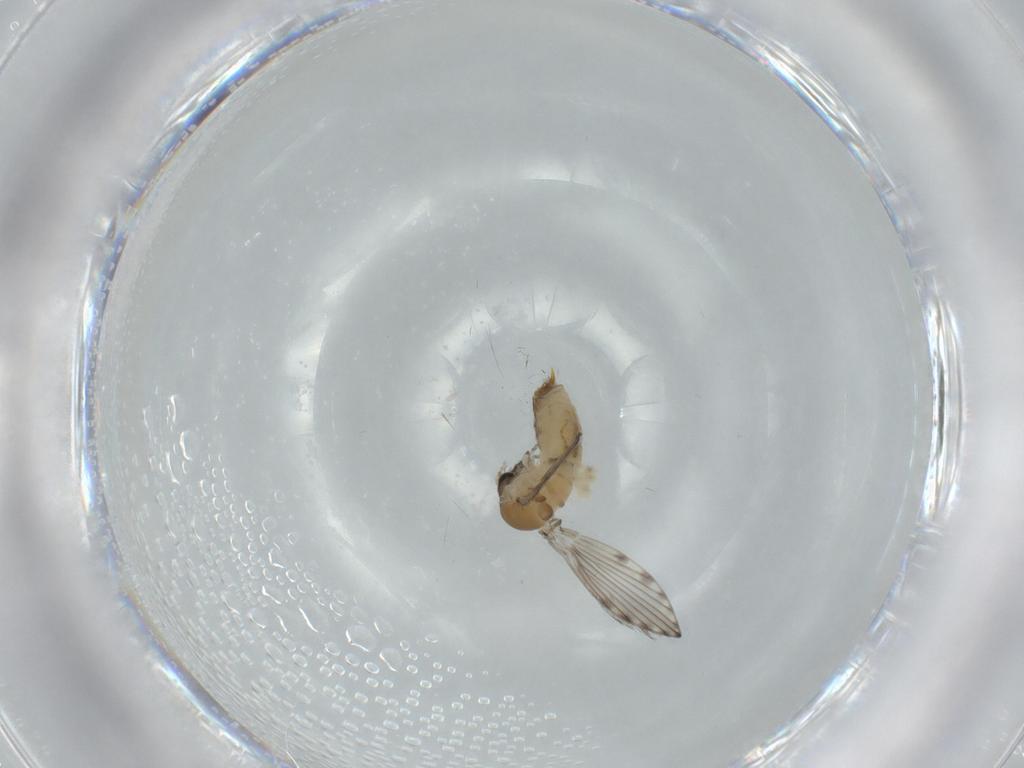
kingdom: Animalia
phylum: Arthropoda
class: Insecta
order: Diptera
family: Psychodidae
